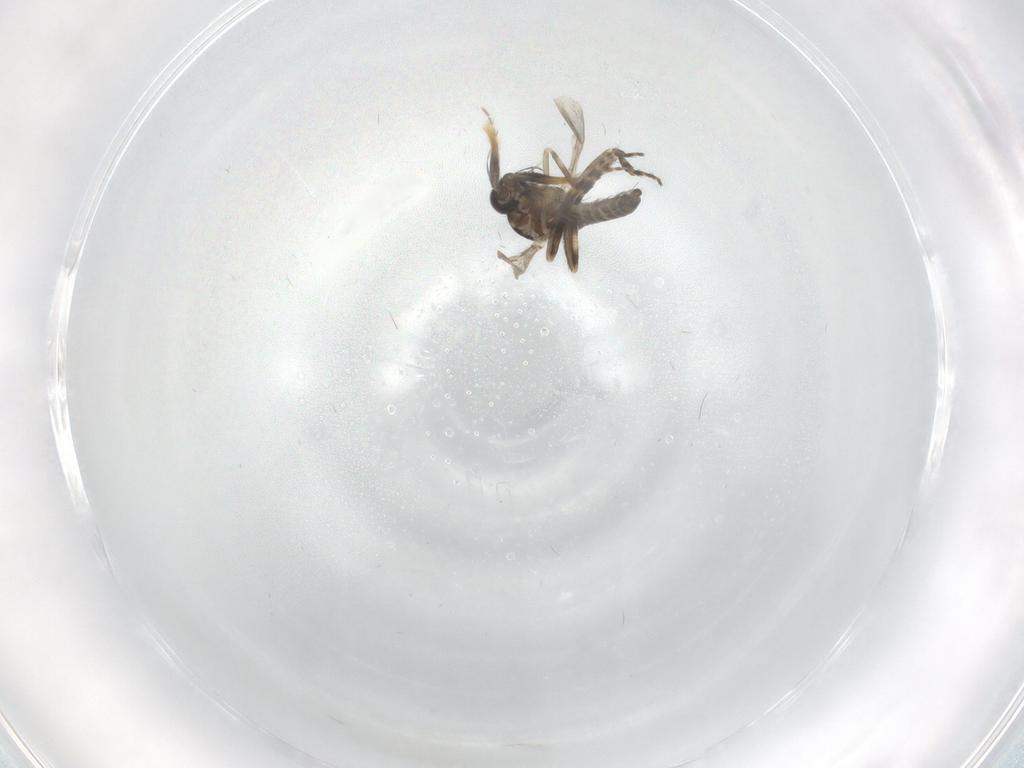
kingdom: Animalia
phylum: Arthropoda
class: Insecta
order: Diptera
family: Ceratopogonidae
